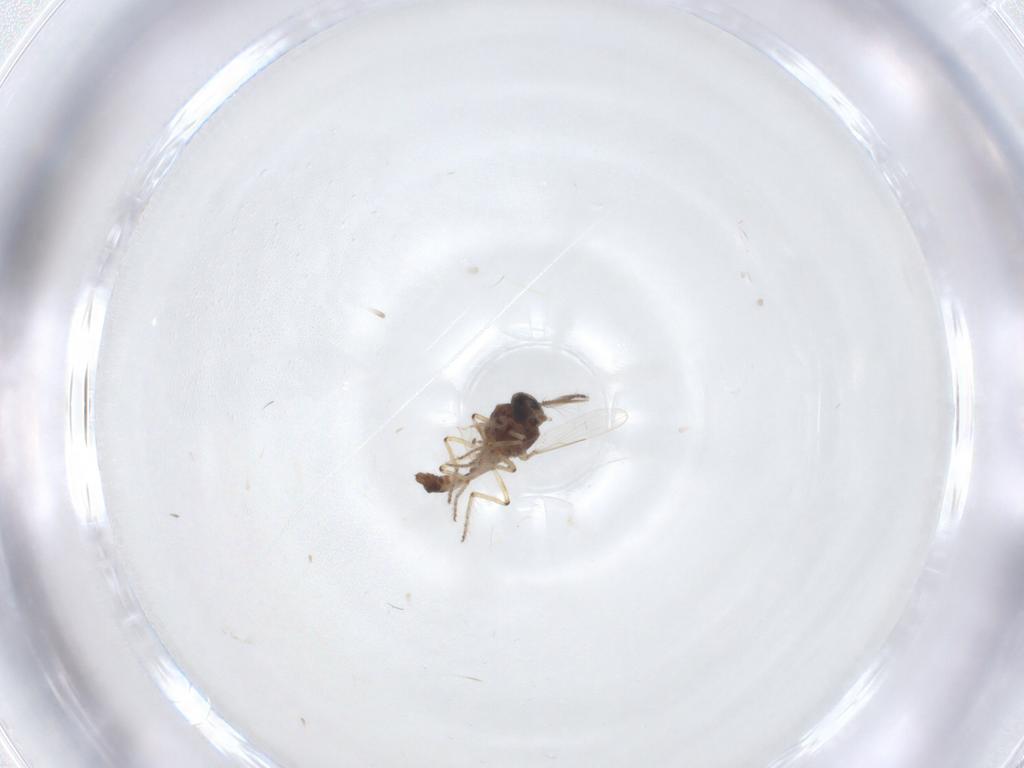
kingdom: Animalia
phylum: Arthropoda
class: Insecta
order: Diptera
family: Ceratopogonidae
